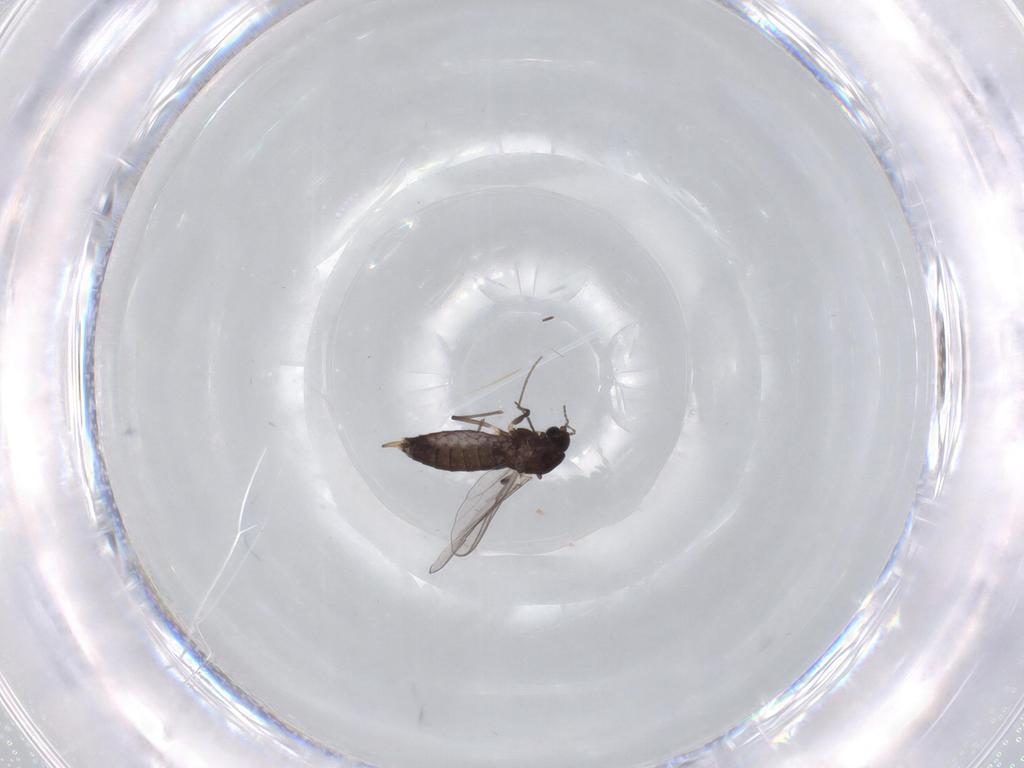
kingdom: Animalia
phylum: Arthropoda
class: Insecta
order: Diptera
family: Chironomidae
